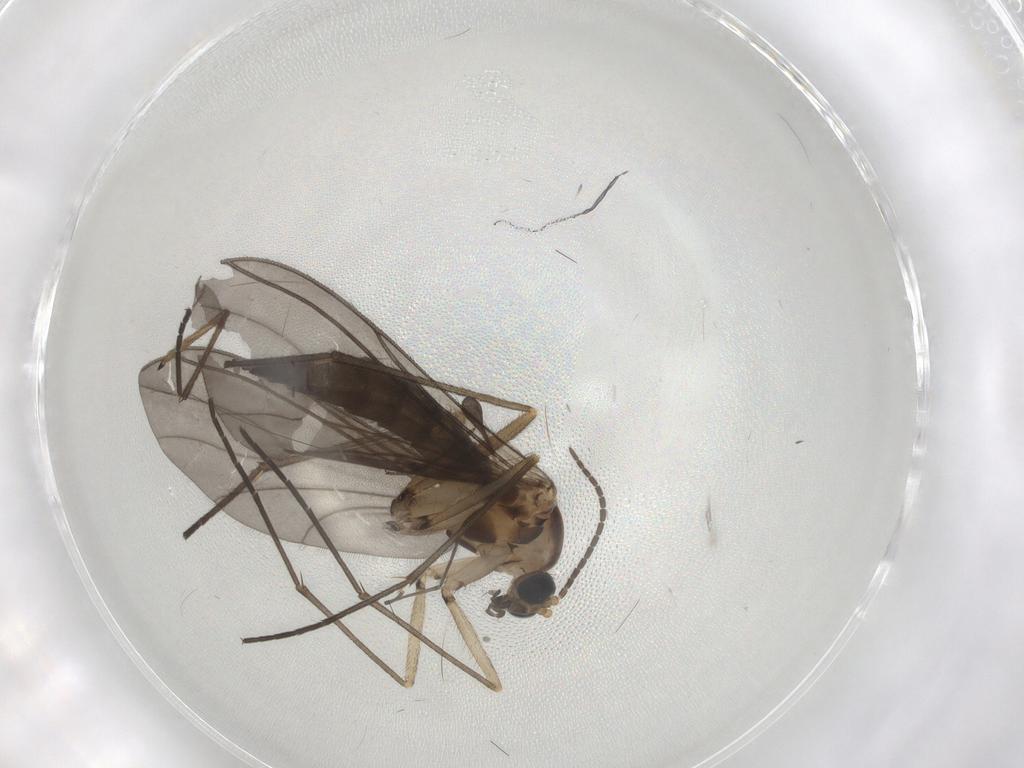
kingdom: Animalia
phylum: Arthropoda
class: Insecta
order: Diptera
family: Sciaridae
